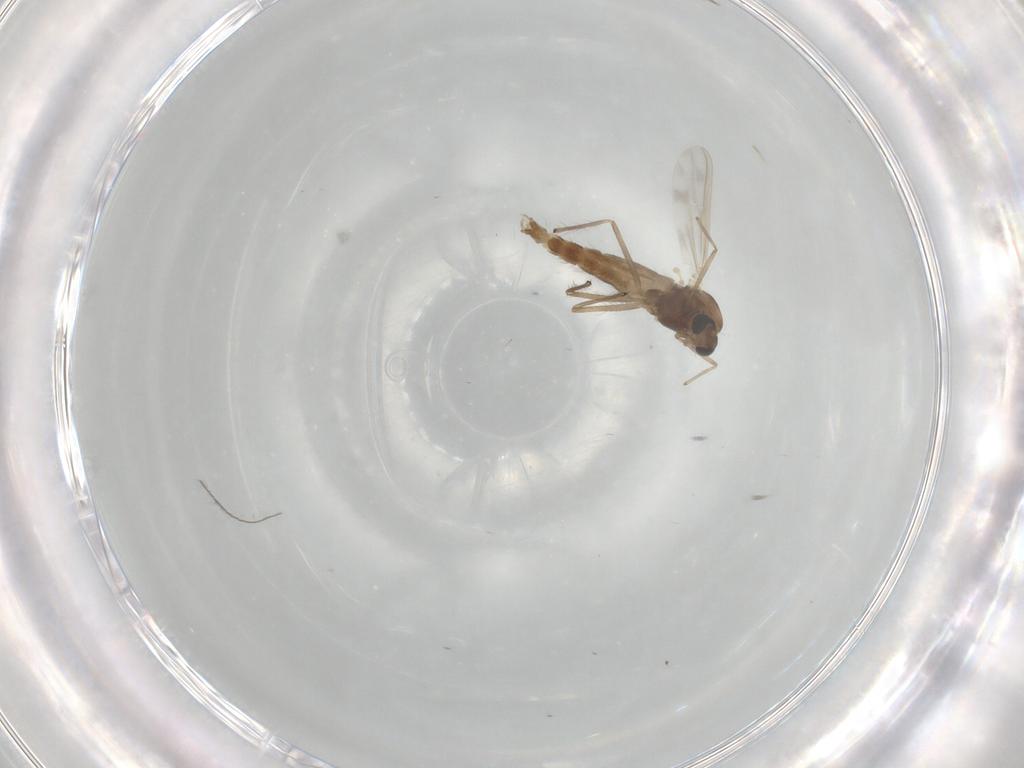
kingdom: Animalia
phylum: Arthropoda
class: Insecta
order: Diptera
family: Chironomidae
